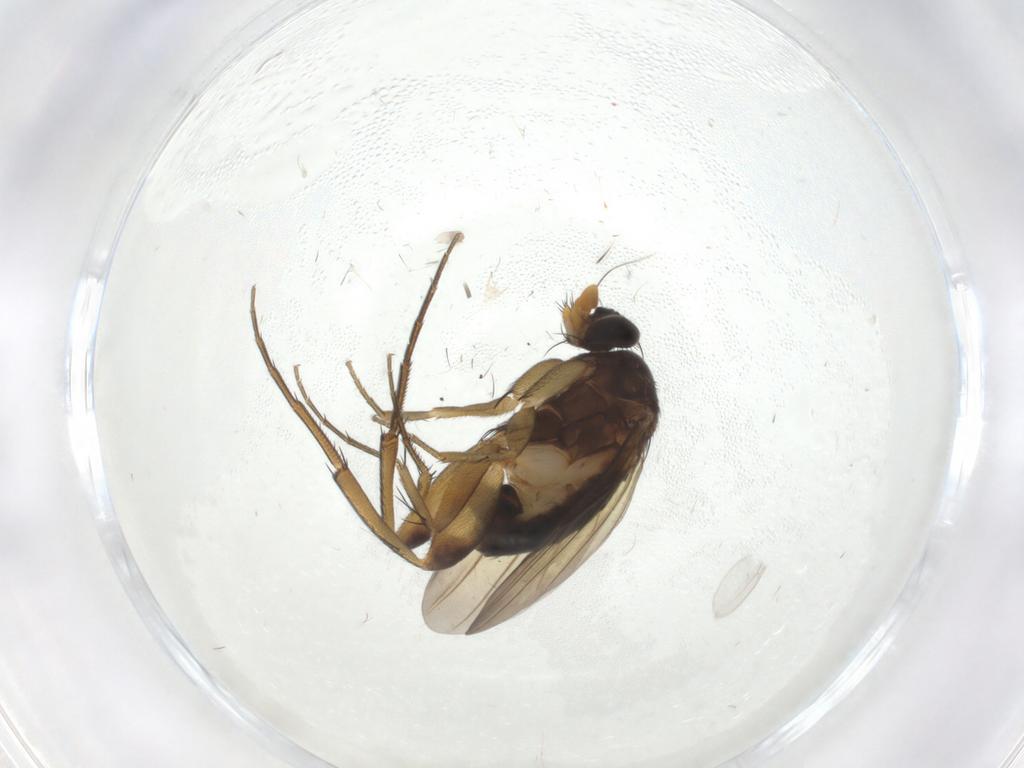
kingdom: Animalia
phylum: Arthropoda
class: Insecta
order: Diptera
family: Phoridae
